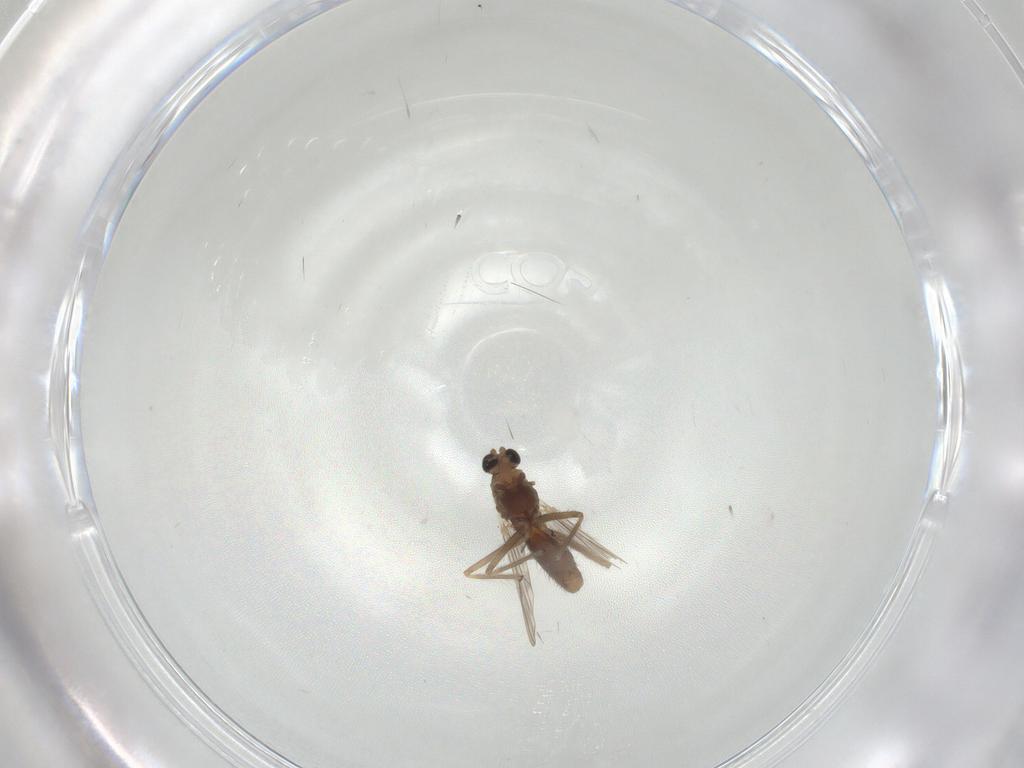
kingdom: Animalia
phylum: Arthropoda
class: Insecta
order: Diptera
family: Chironomidae
